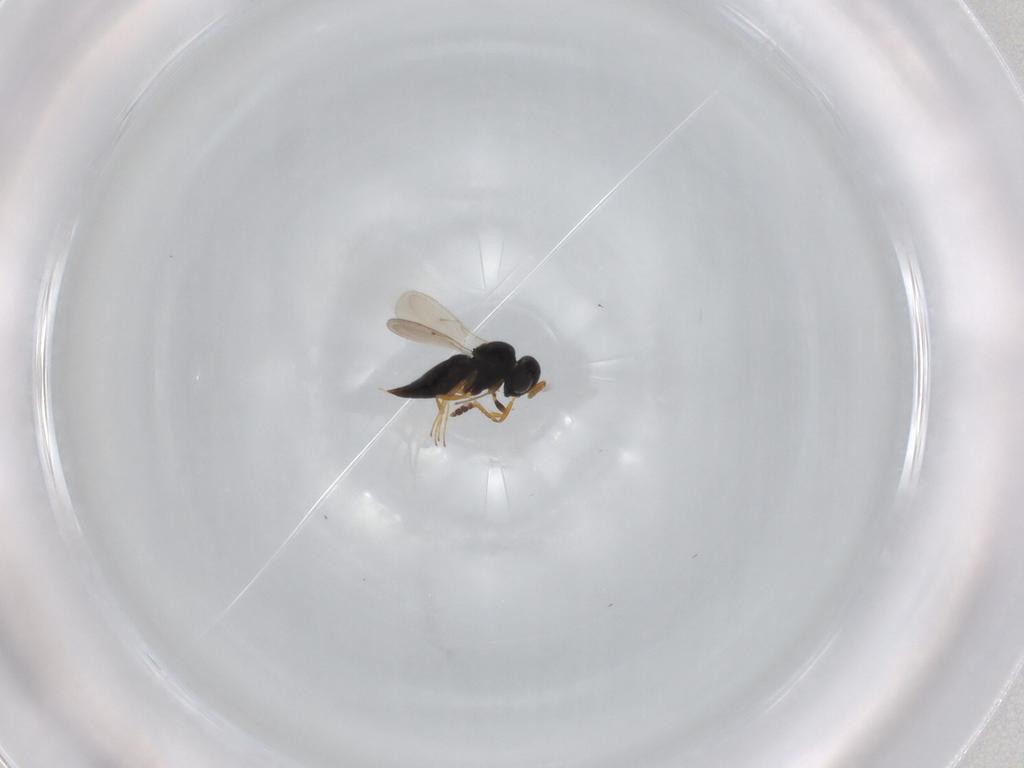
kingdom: Animalia
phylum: Arthropoda
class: Insecta
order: Hymenoptera
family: Scelionidae
